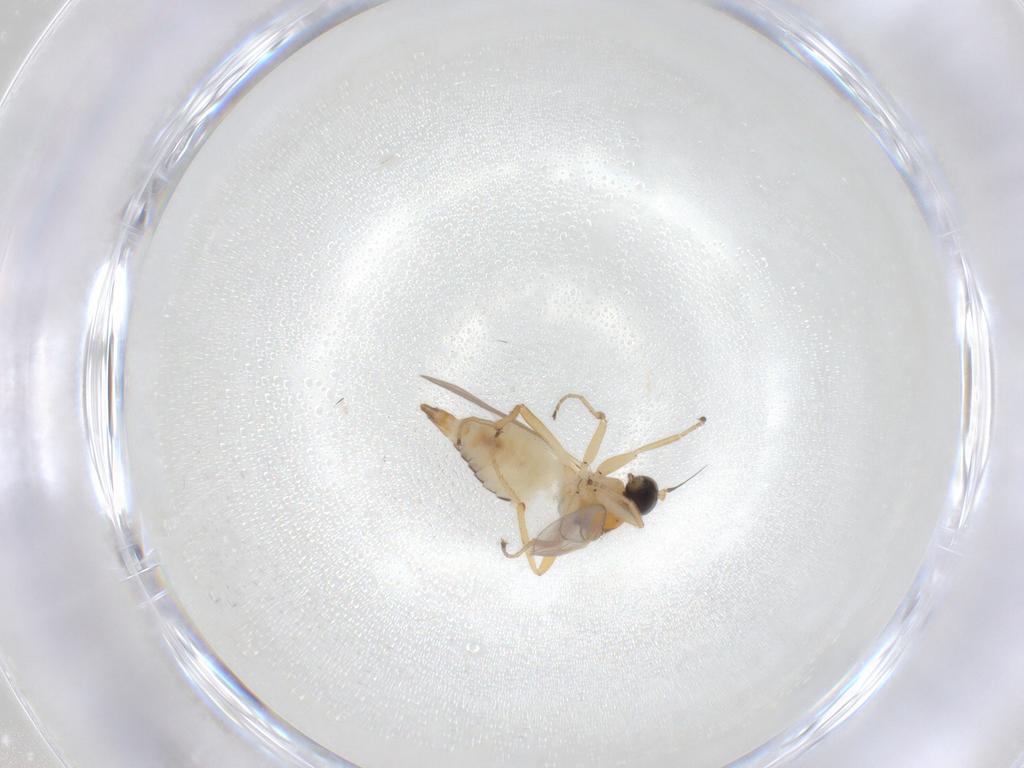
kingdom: Animalia
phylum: Arthropoda
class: Insecta
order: Diptera
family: Hybotidae
